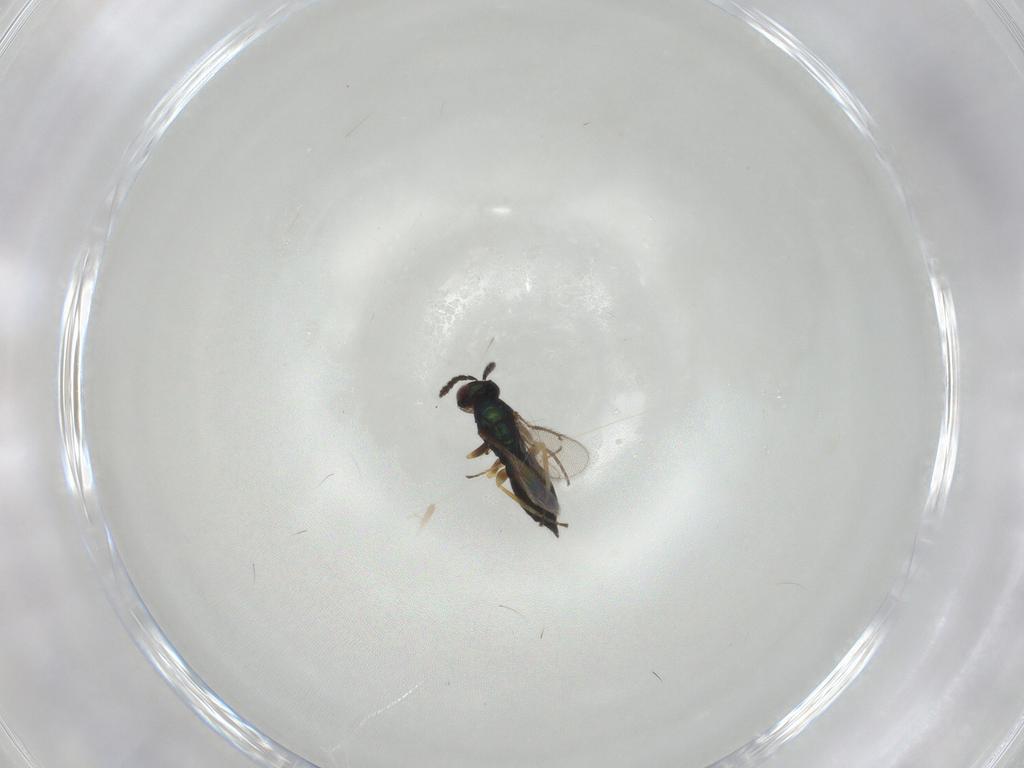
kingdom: Animalia
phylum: Arthropoda
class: Insecta
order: Hymenoptera
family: Eulophidae
